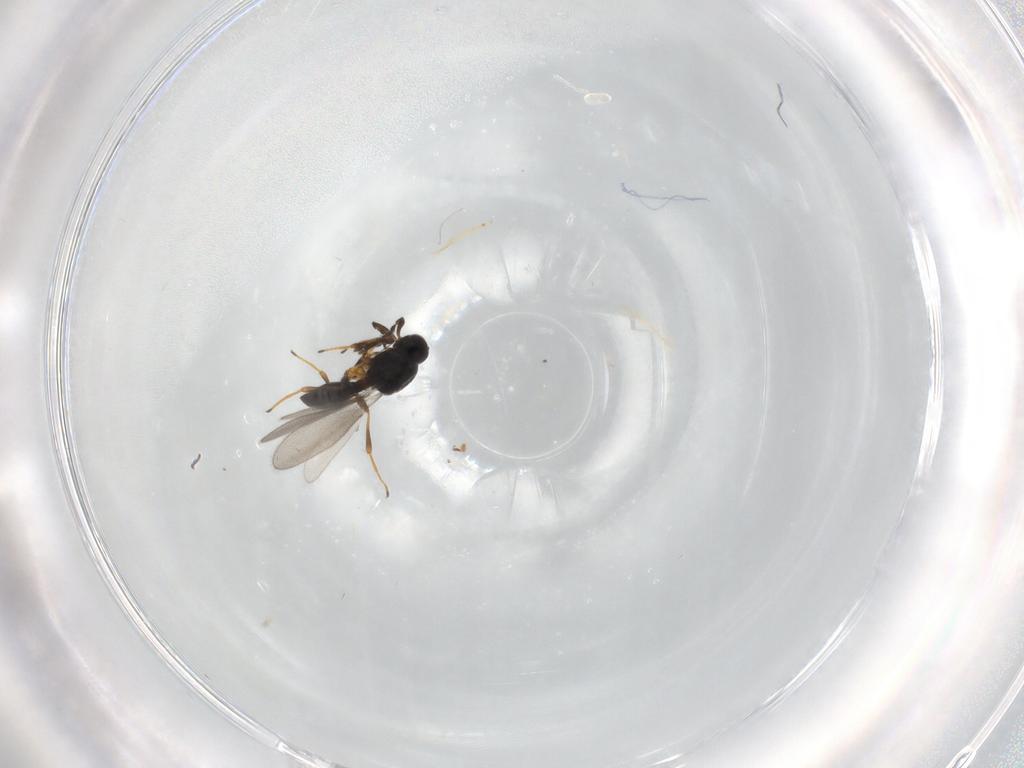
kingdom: Animalia
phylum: Arthropoda
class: Insecta
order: Hymenoptera
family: Platygastridae
